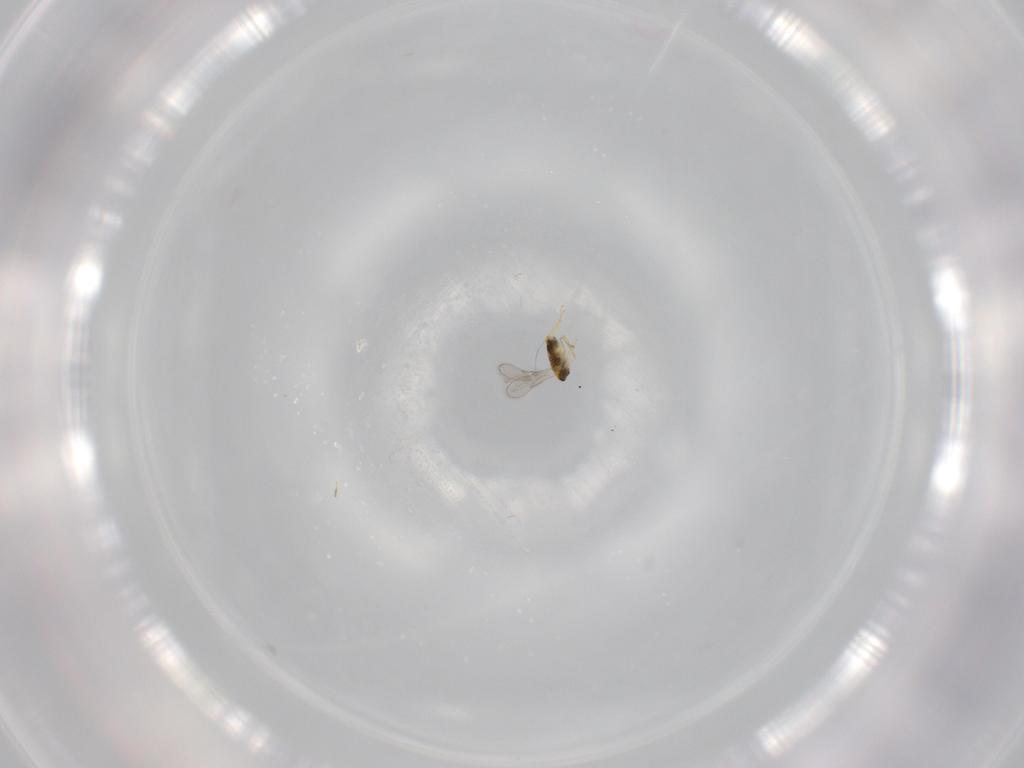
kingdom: Animalia
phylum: Arthropoda
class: Insecta
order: Hymenoptera
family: Aphelinidae
